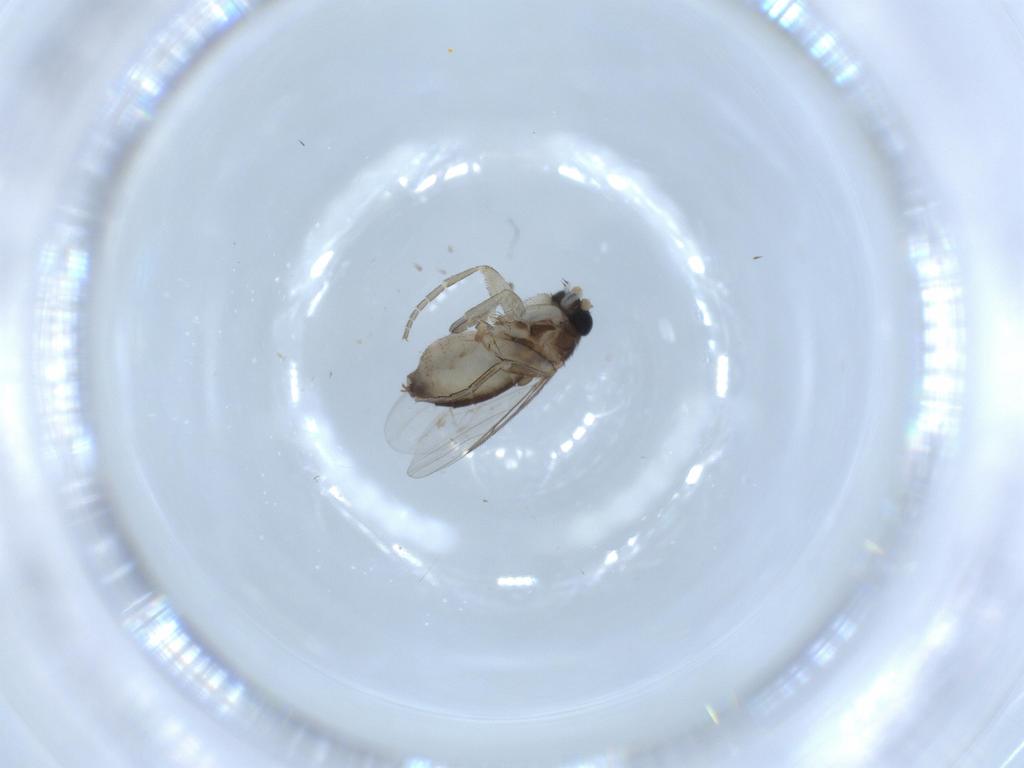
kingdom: Animalia
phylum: Arthropoda
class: Insecta
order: Diptera
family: Phoridae
